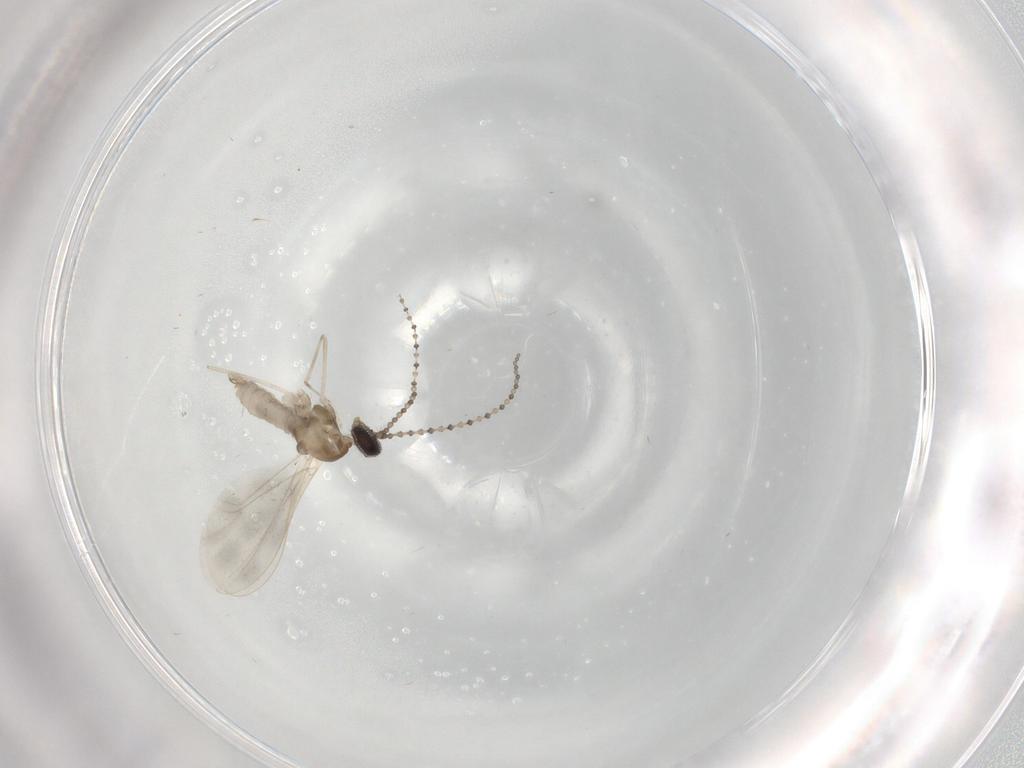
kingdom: Animalia
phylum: Arthropoda
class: Insecta
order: Diptera
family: Cecidomyiidae
